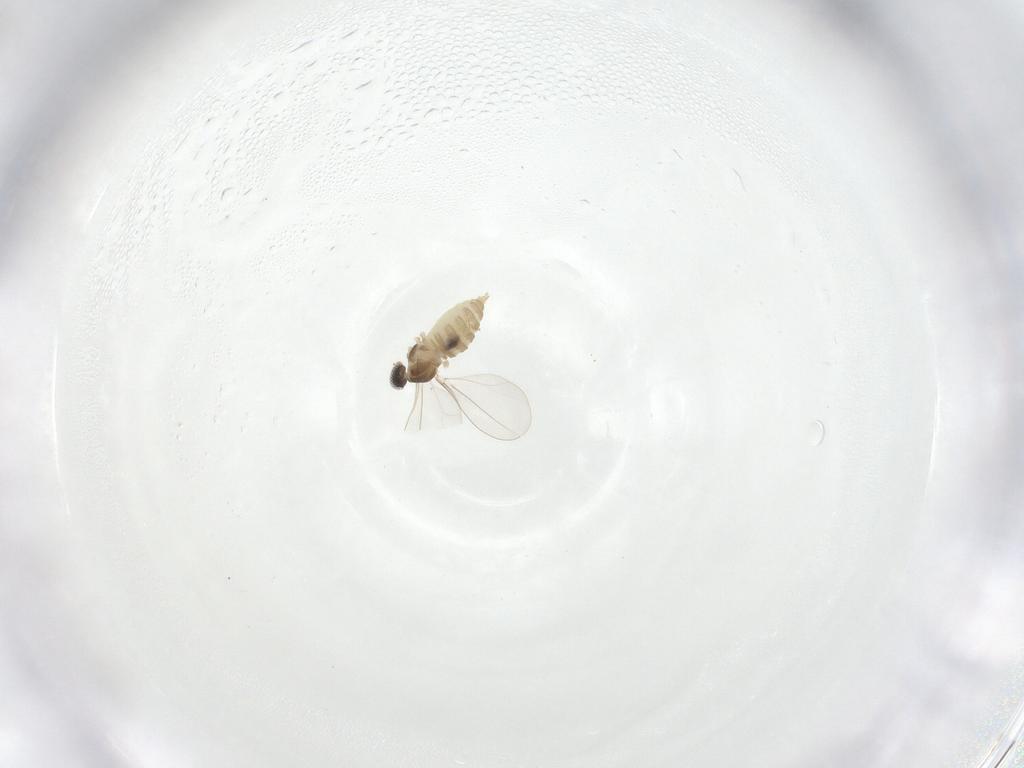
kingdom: Animalia
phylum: Arthropoda
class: Insecta
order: Diptera
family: Cecidomyiidae
